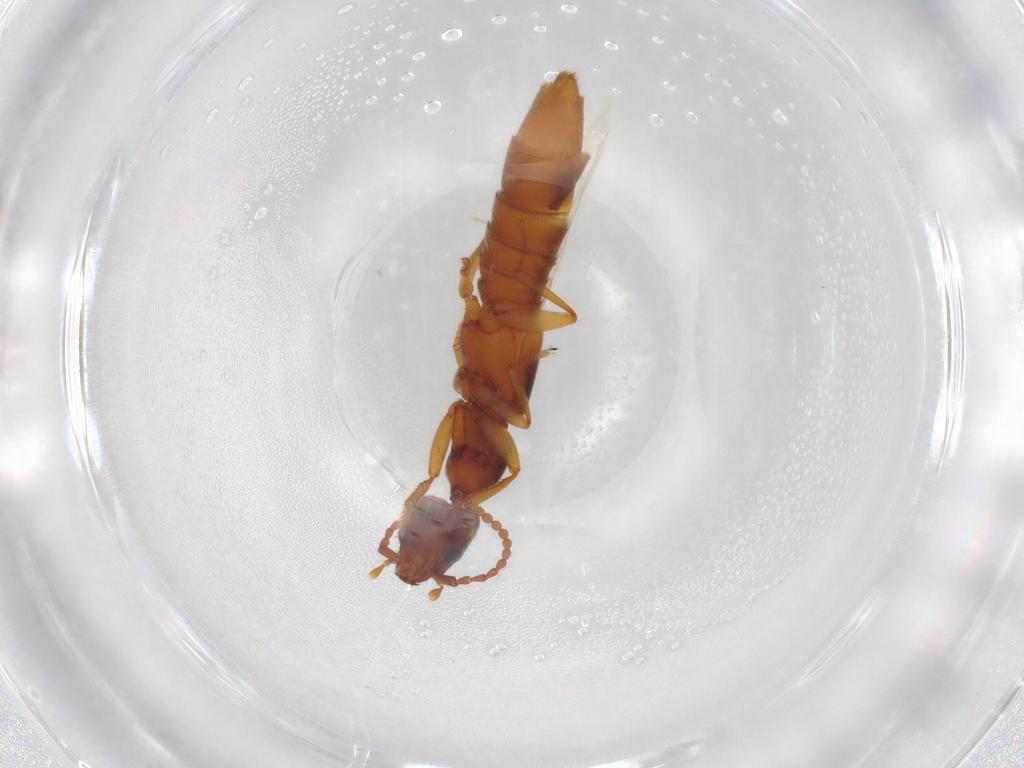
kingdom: Animalia
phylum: Arthropoda
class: Insecta
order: Coleoptera
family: Staphylinidae
